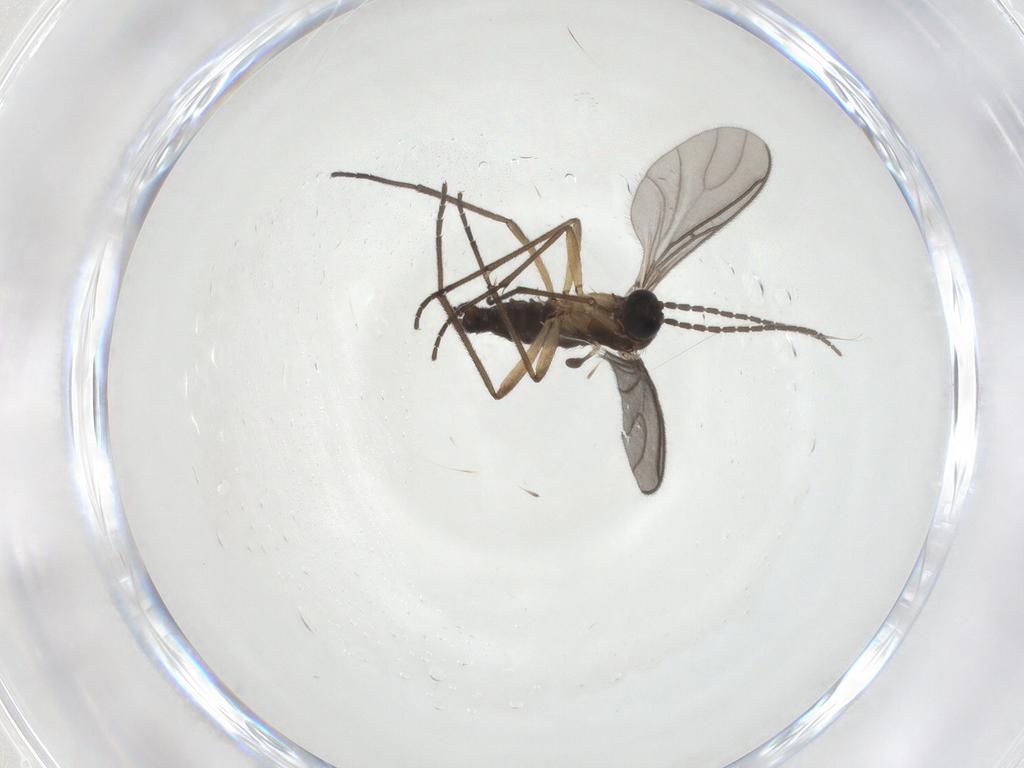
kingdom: Animalia
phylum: Arthropoda
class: Insecta
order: Diptera
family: Sciaridae
